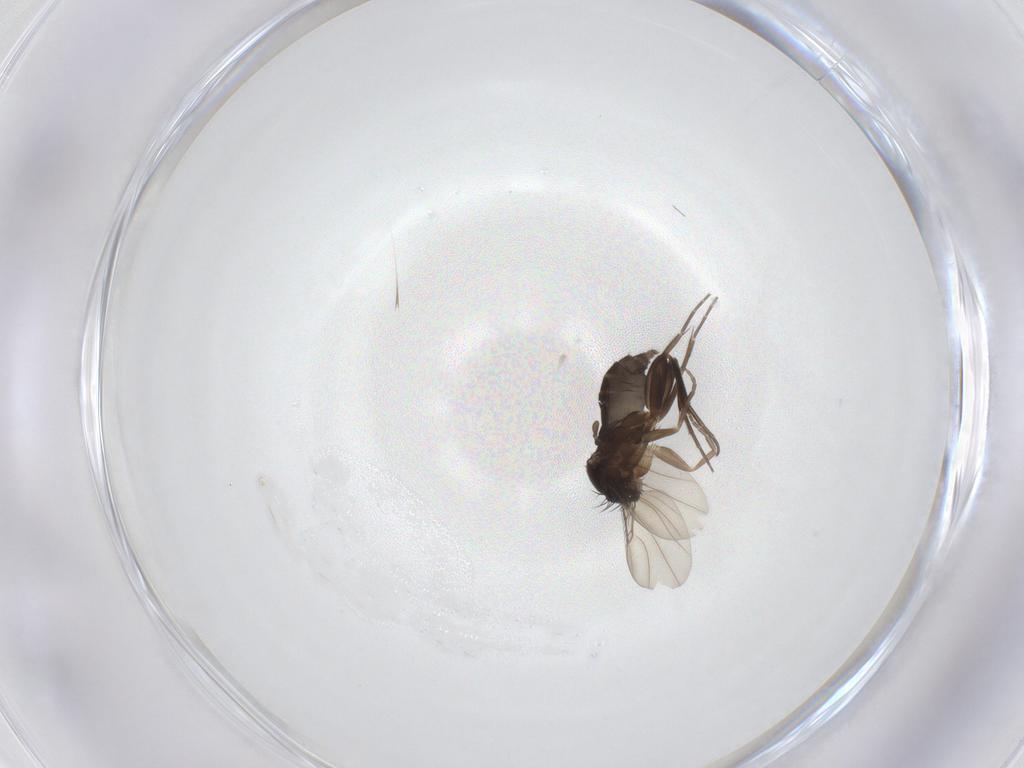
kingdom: Animalia
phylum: Arthropoda
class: Insecta
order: Diptera
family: Phoridae
